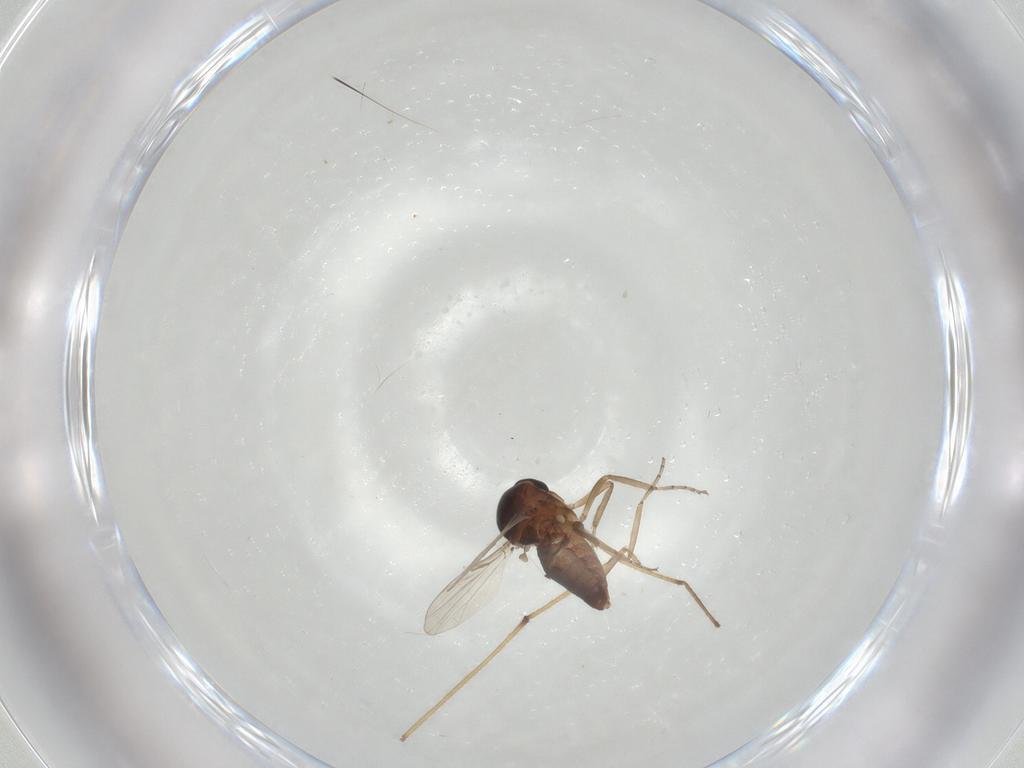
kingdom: Animalia
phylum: Arthropoda
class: Insecta
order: Diptera
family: Ceratopogonidae
